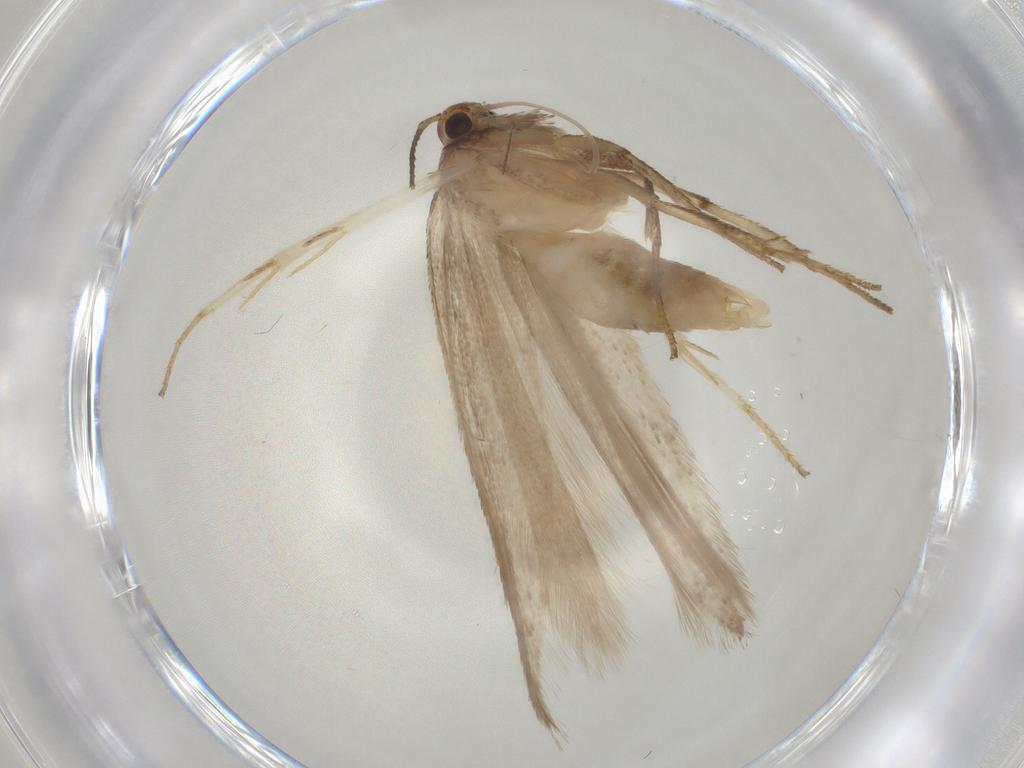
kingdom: Animalia
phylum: Arthropoda
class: Insecta
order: Lepidoptera
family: Gelechiidae
